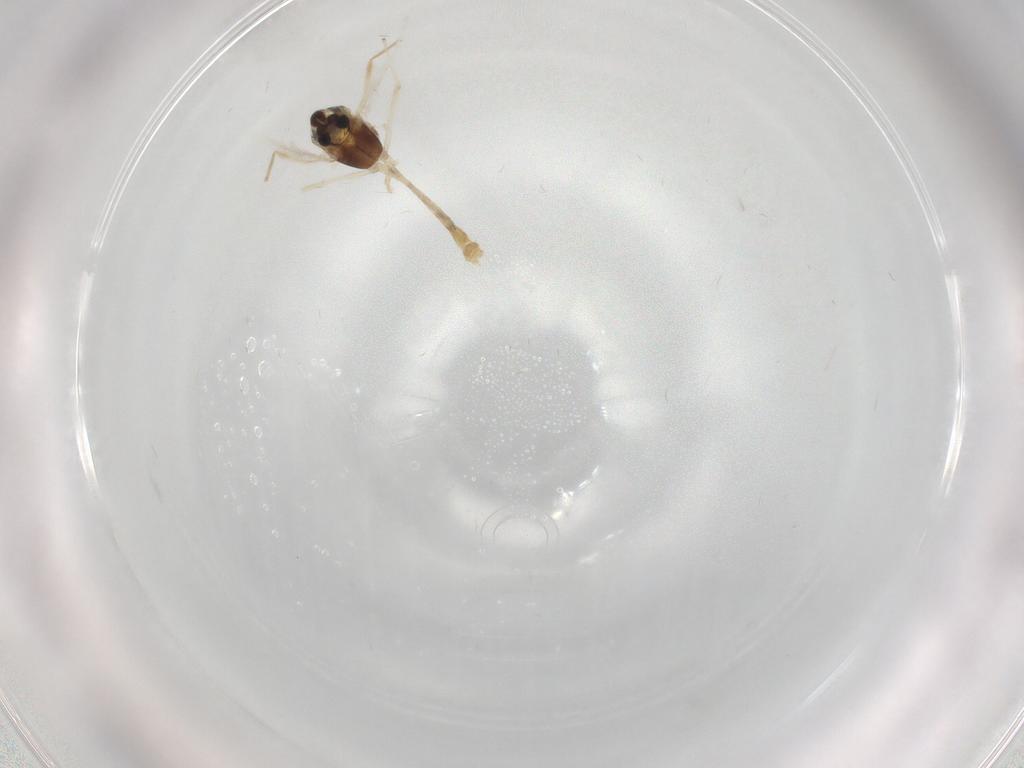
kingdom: Animalia
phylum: Arthropoda
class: Insecta
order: Diptera
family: Chironomidae
